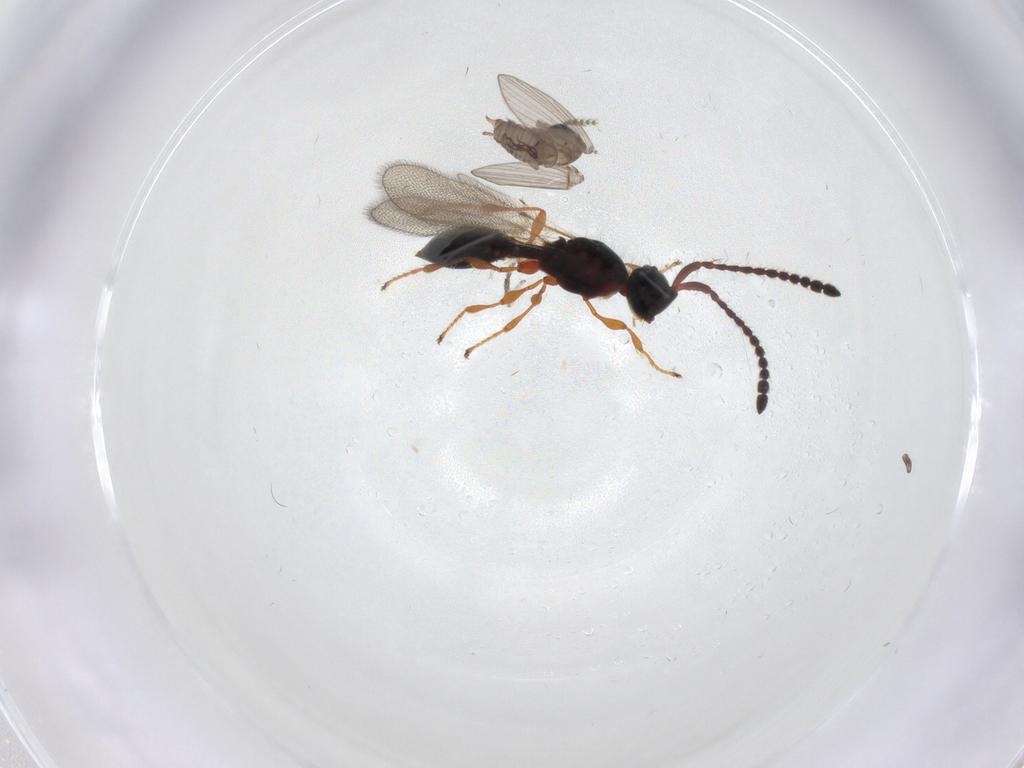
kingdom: Animalia
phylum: Arthropoda
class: Insecta
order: Diptera
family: Psychodidae
